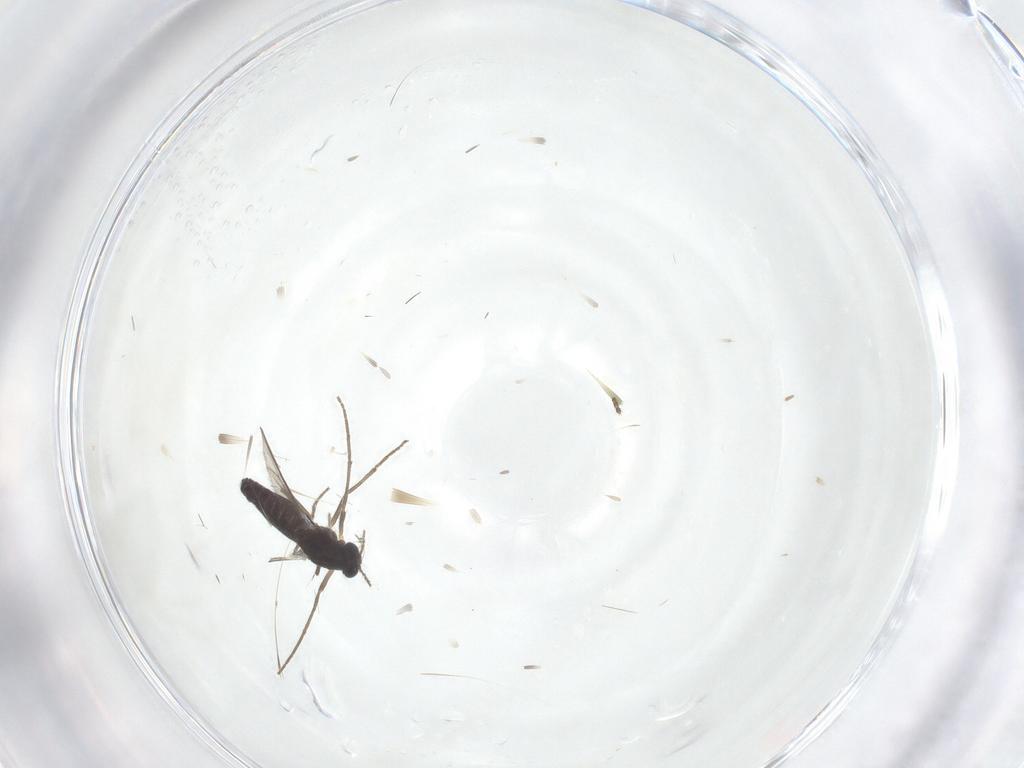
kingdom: Animalia
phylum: Arthropoda
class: Insecta
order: Diptera
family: Chironomidae
